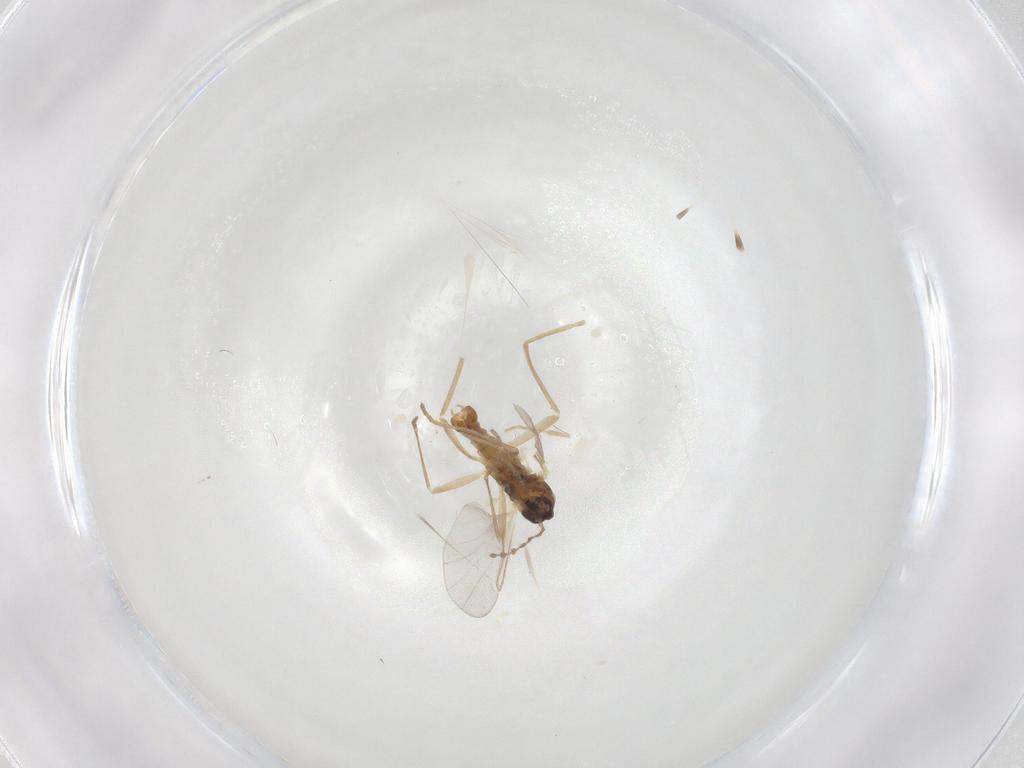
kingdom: Animalia
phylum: Arthropoda
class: Insecta
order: Diptera
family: Cecidomyiidae
